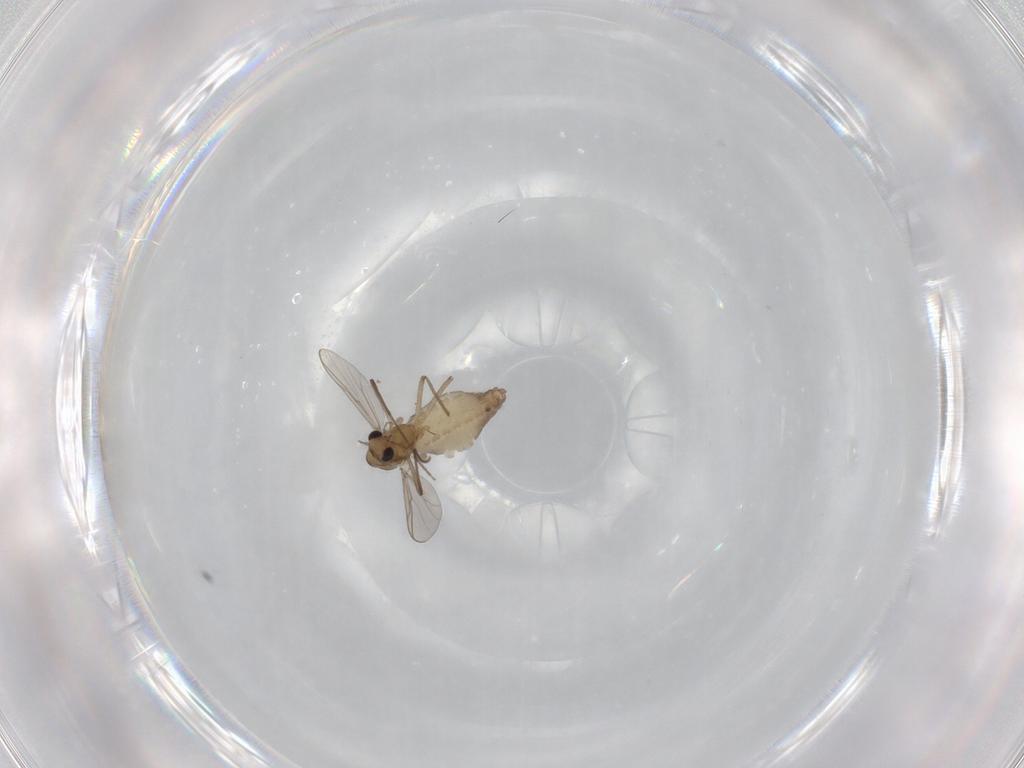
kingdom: Animalia
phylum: Arthropoda
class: Insecta
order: Diptera
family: Chironomidae
